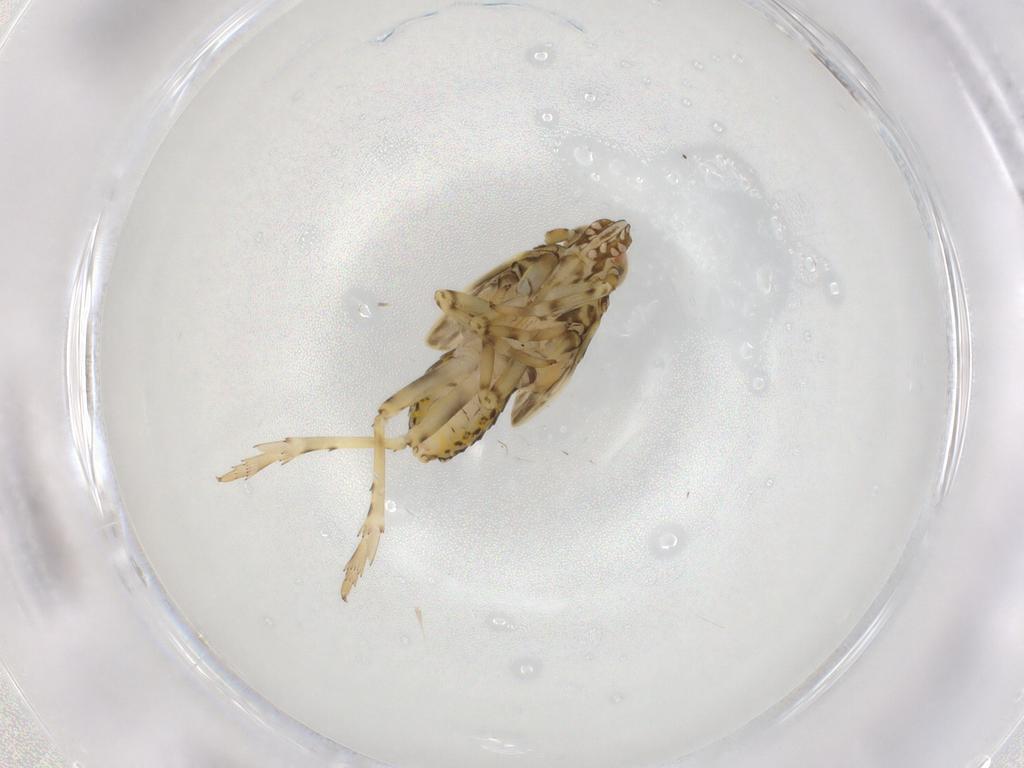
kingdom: Animalia
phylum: Arthropoda
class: Insecta
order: Hemiptera
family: Delphacidae
